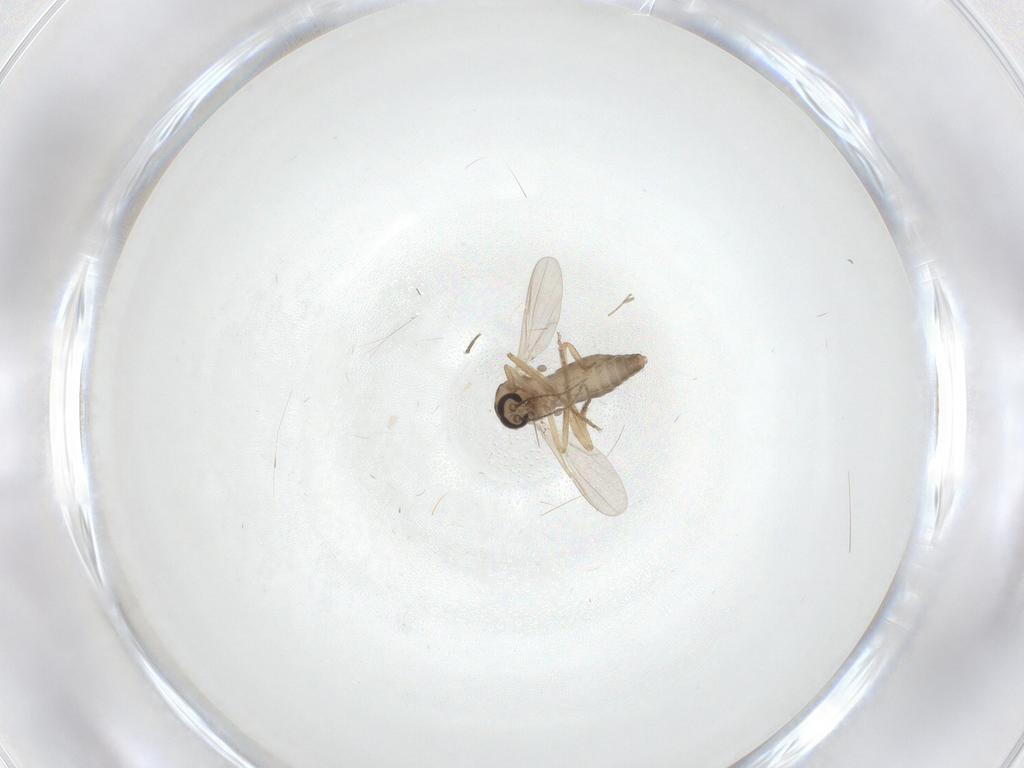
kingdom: Animalia
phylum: Arthropoda
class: Insecta
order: Diptera
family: Ceratopogonidae
